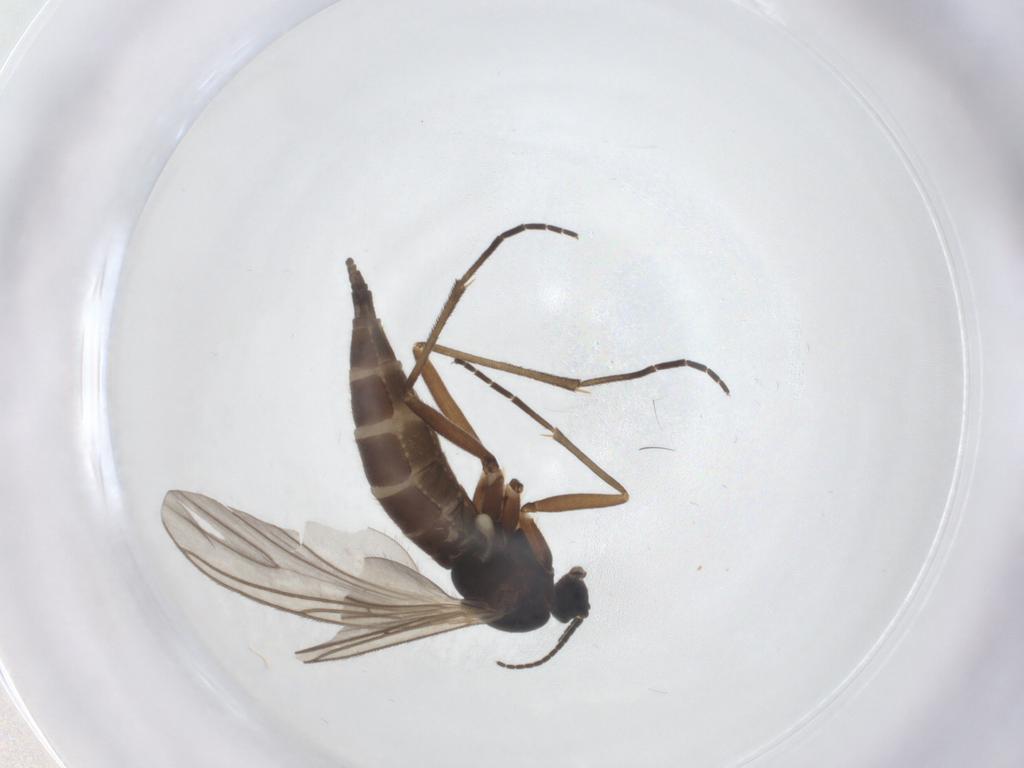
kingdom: Animalia
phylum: Arthropoda
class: Insecta
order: Diptera
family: Sciaridae
